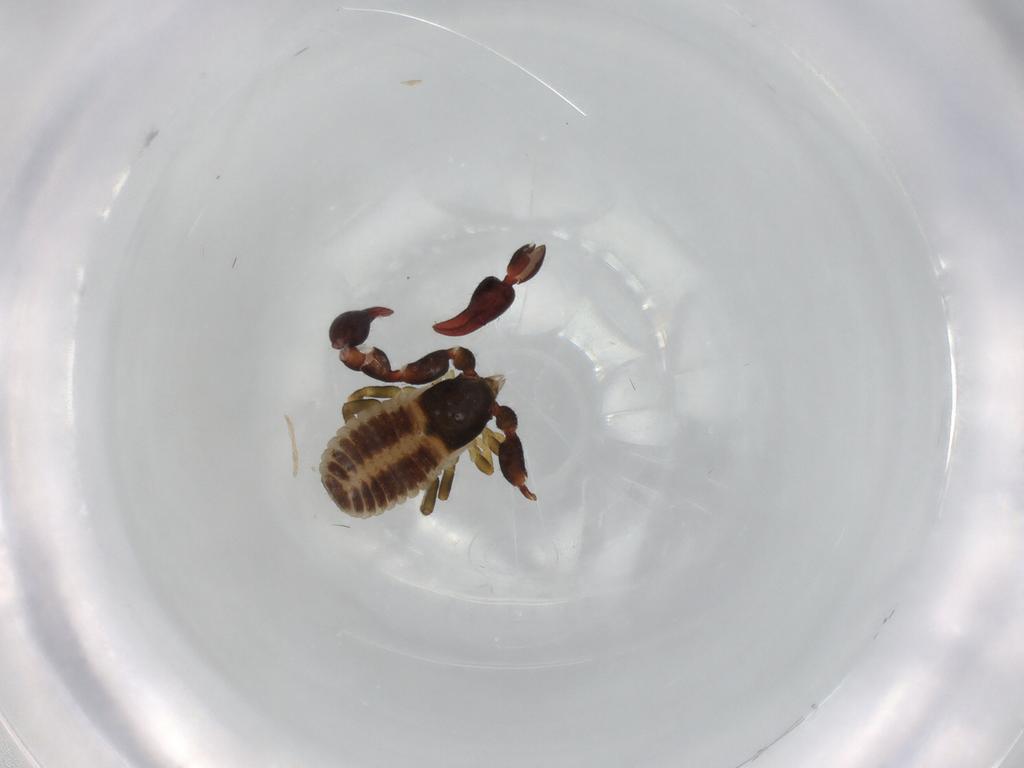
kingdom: Animalia
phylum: Arthropoda
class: Arachnida
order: Pseudoscorpiones
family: Chernetidae
